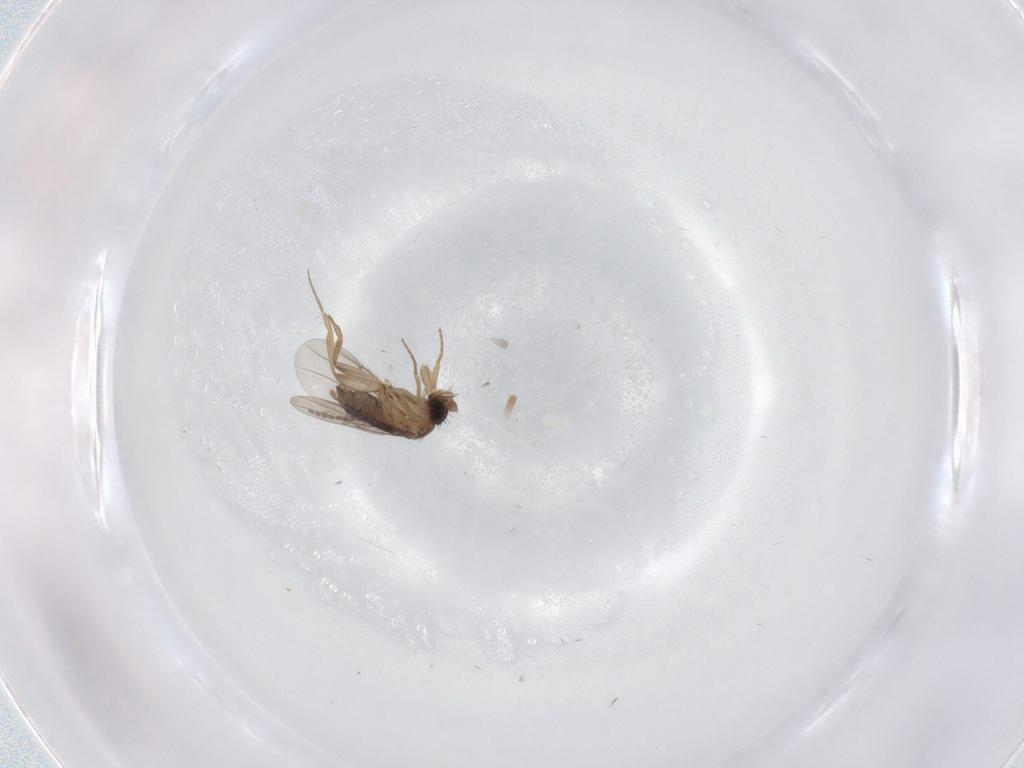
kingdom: Animalia
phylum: Arthropoda
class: Insecta
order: Diptera
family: Phoridae
